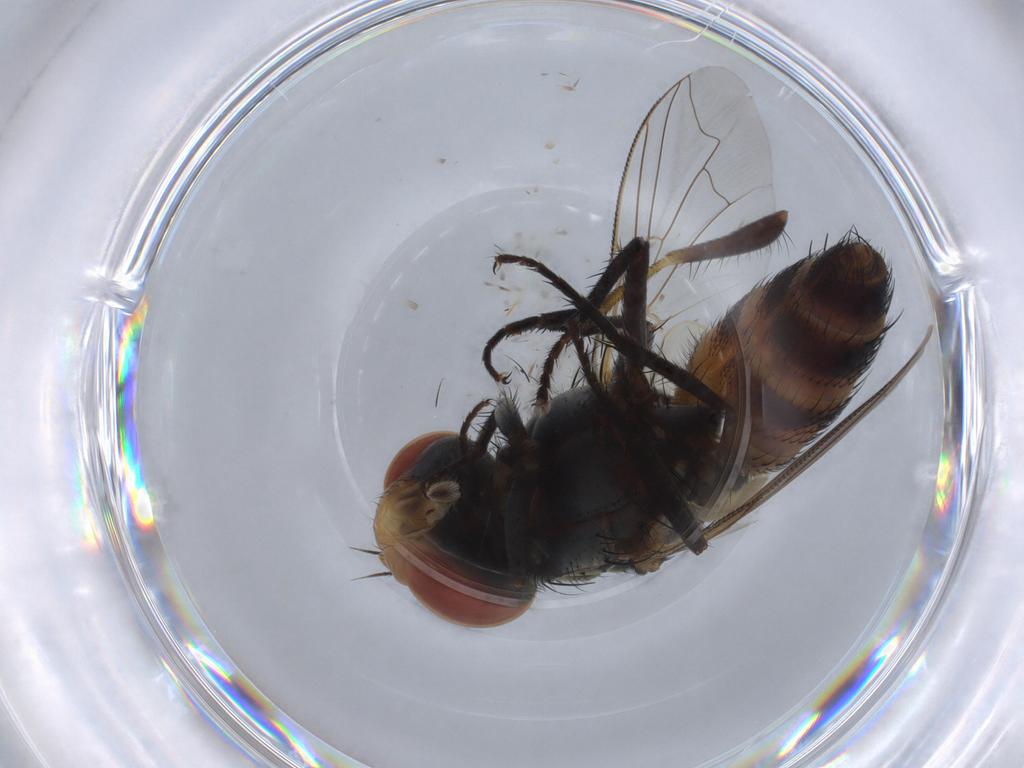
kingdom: Animalia
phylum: Arthropoda
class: Insecta
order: Diptera
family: Sarcophagidae
